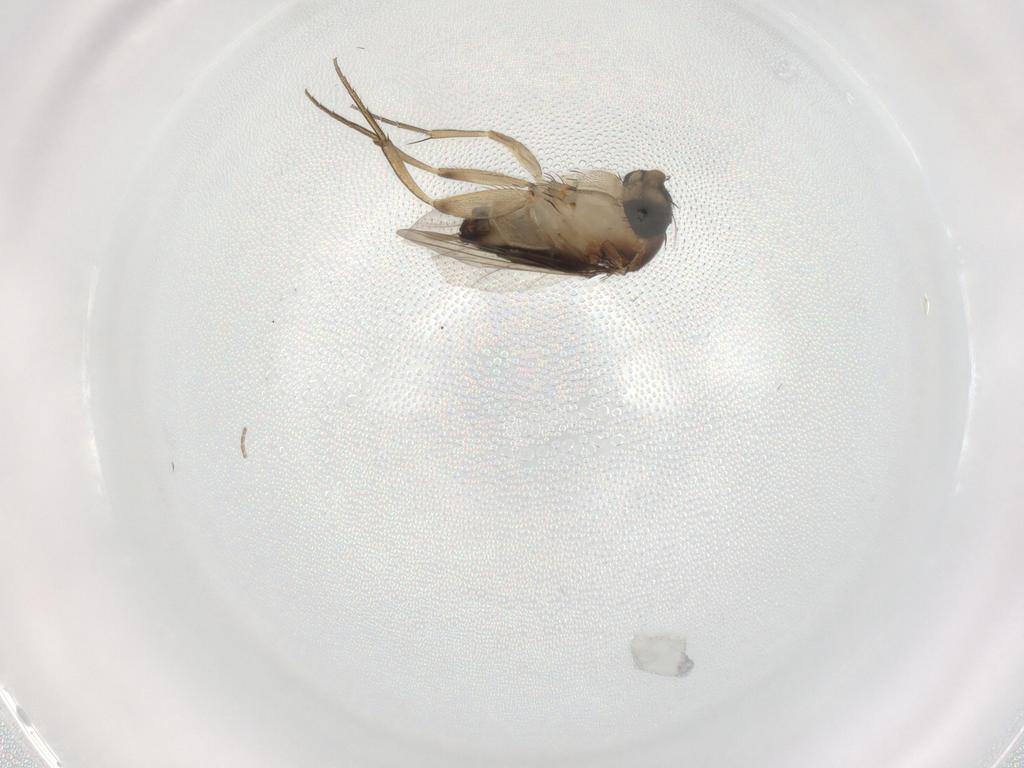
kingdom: Animalia
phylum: Arthropoda
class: Insecta
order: Diptera
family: Phoridae
